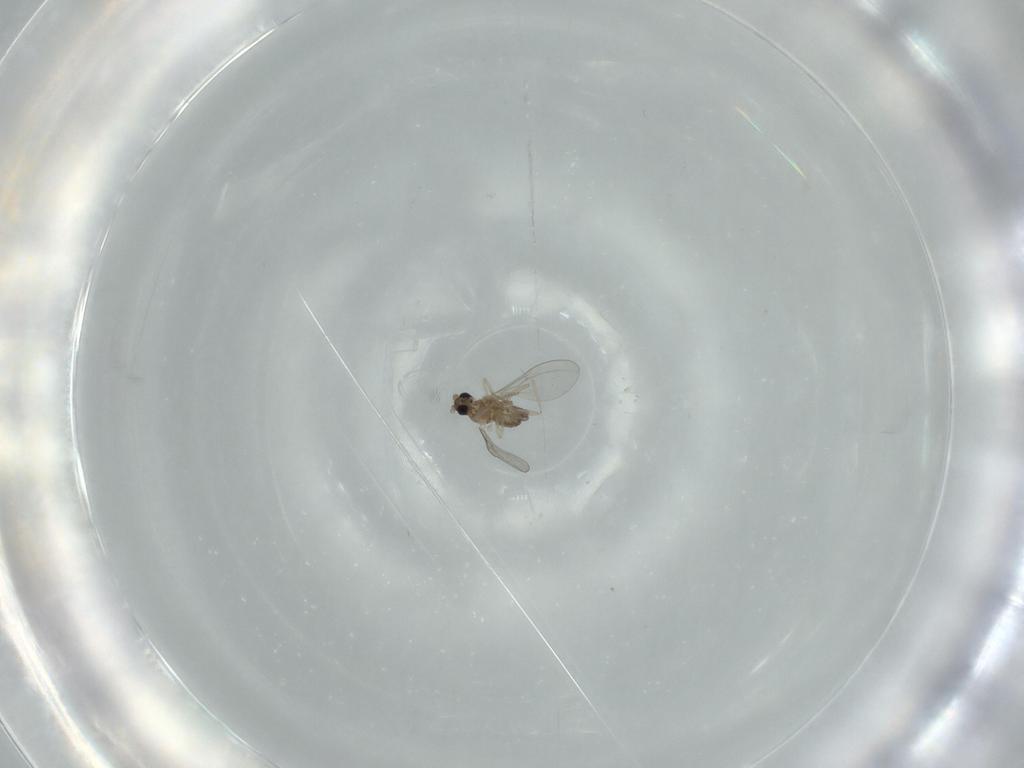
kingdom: Animalia
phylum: Arthropoda
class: Insecta
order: Diptera
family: Cecidomyiidae
